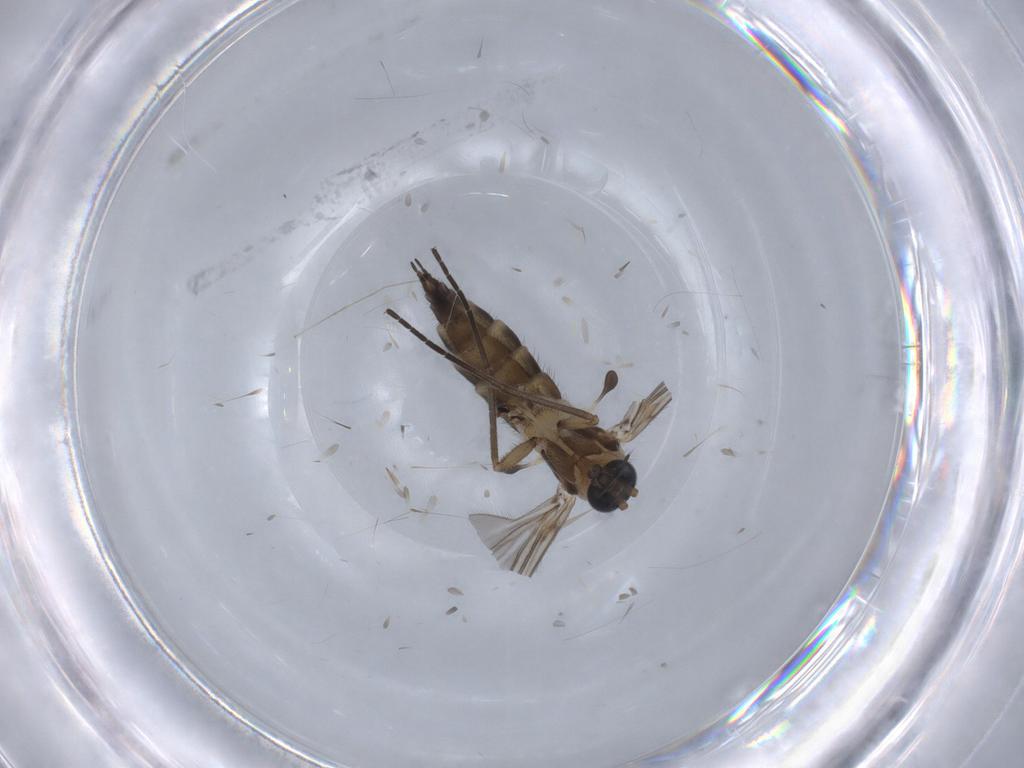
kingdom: Animalia
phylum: Arthropoda
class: Insecta
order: Diptera
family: Sciaridae
